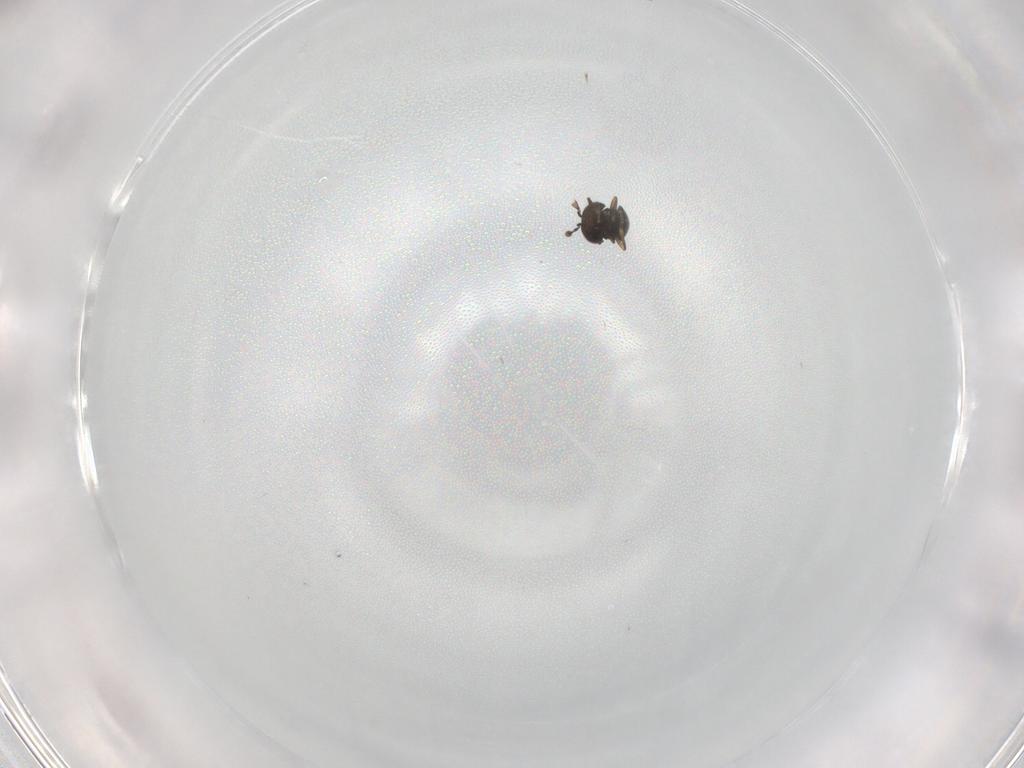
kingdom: Animalia
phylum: Arthropoda
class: Insecta
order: Hymenoptera
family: Scelionidae
